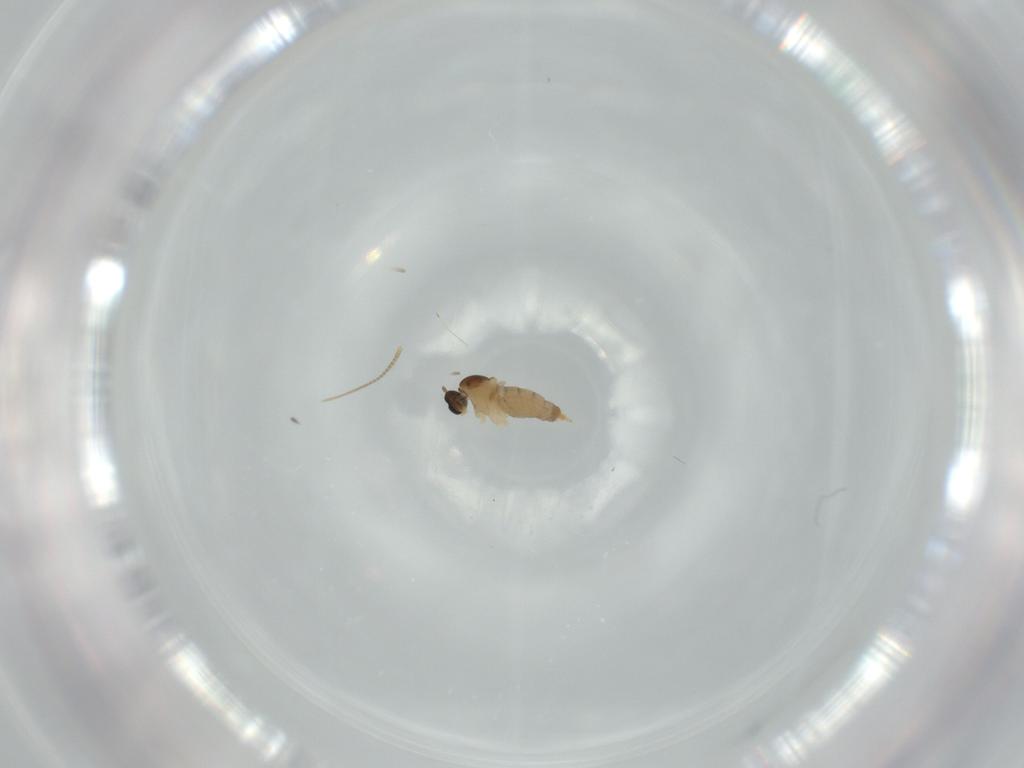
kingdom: Animalia
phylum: Arthropoda
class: Insecta
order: Diptera
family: Cecidomyiidae
